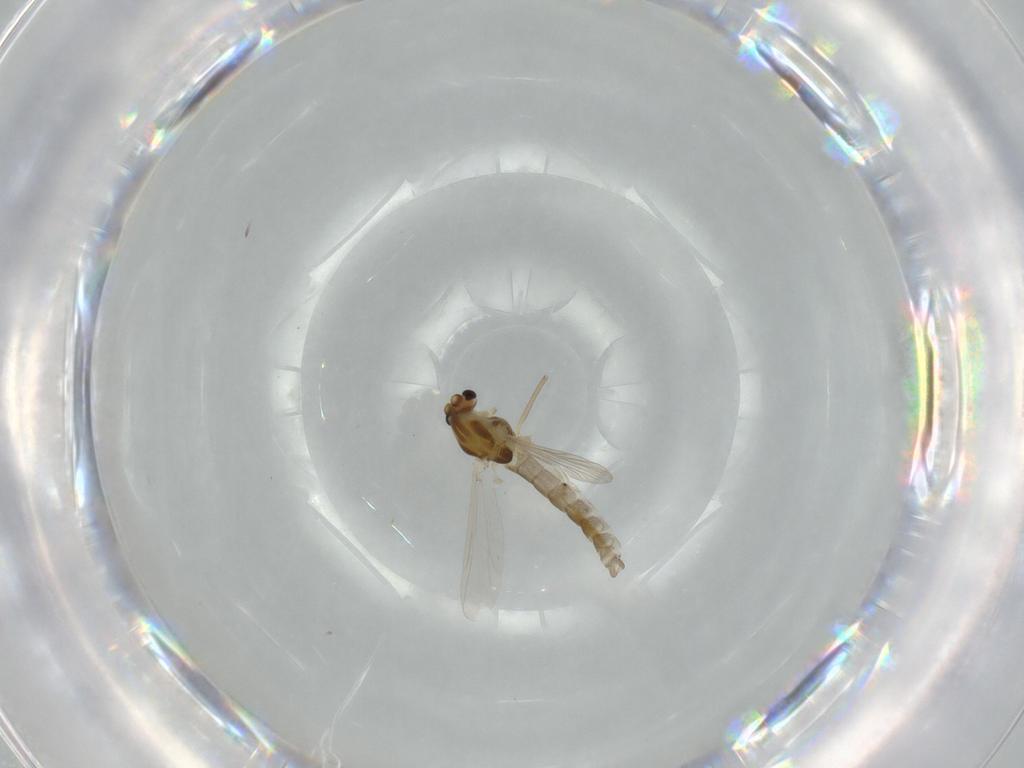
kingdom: Animalia
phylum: Arthropoda
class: Insecta
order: Diptera
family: Chironomidae
